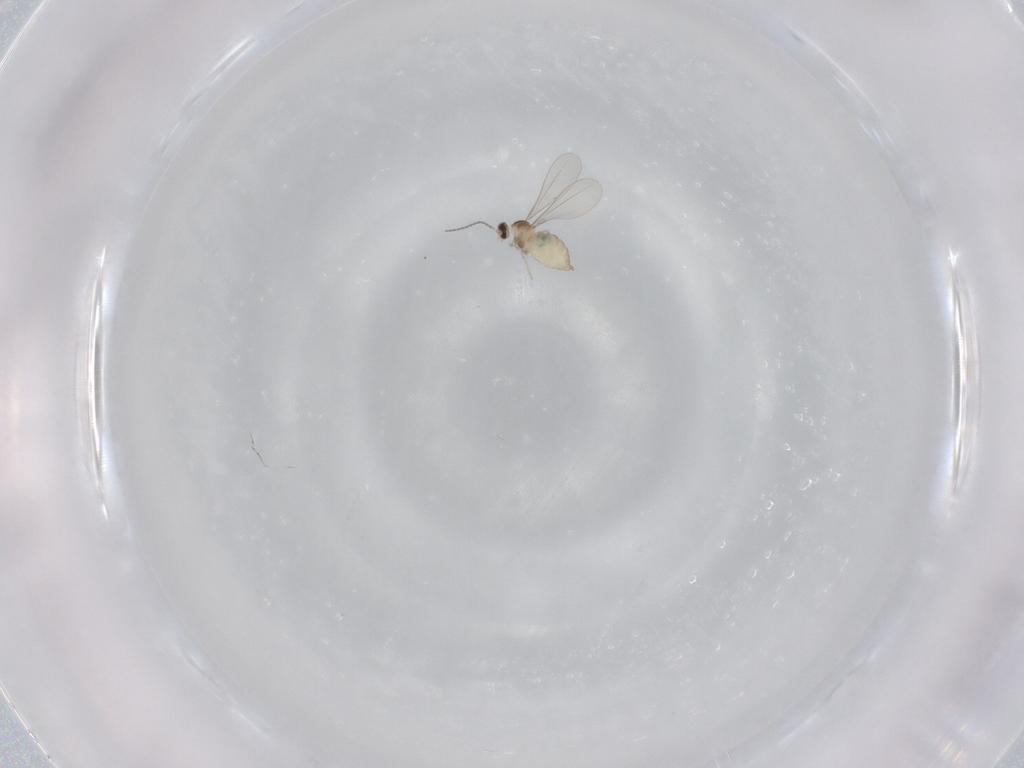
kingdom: Animalia
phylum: Arthropoda
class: Insecta
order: Diptera
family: Cecidomyiidae
